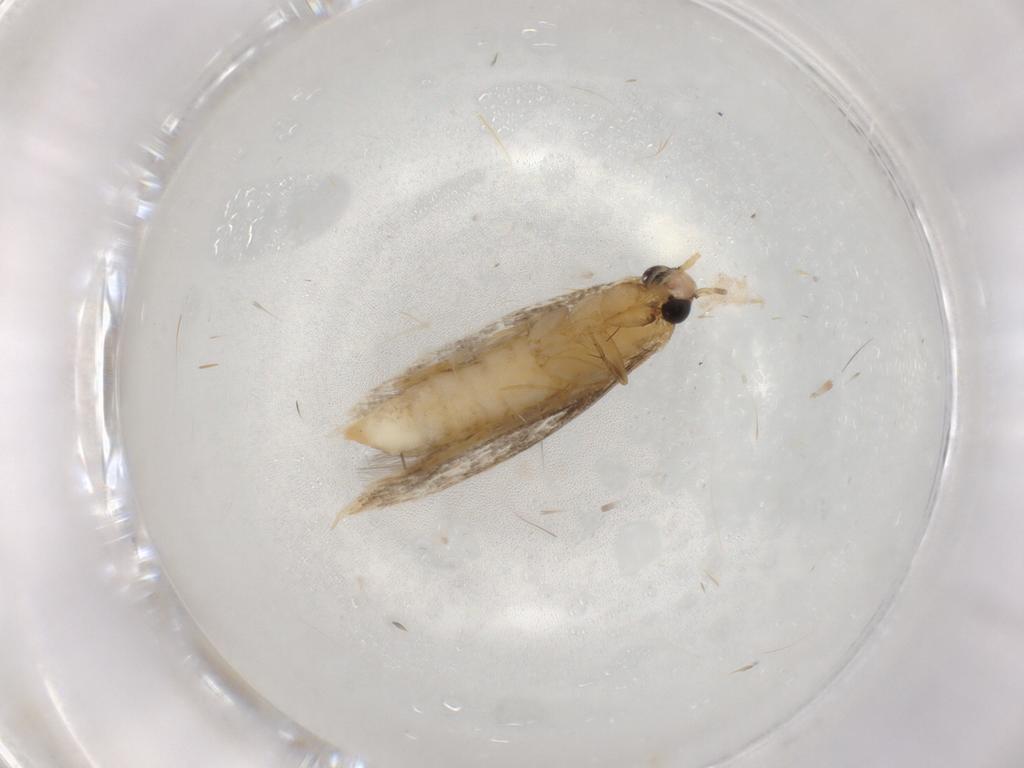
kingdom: Animalia
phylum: Arthropoda
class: Insecta
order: Lepidoptera
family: Tineidae
